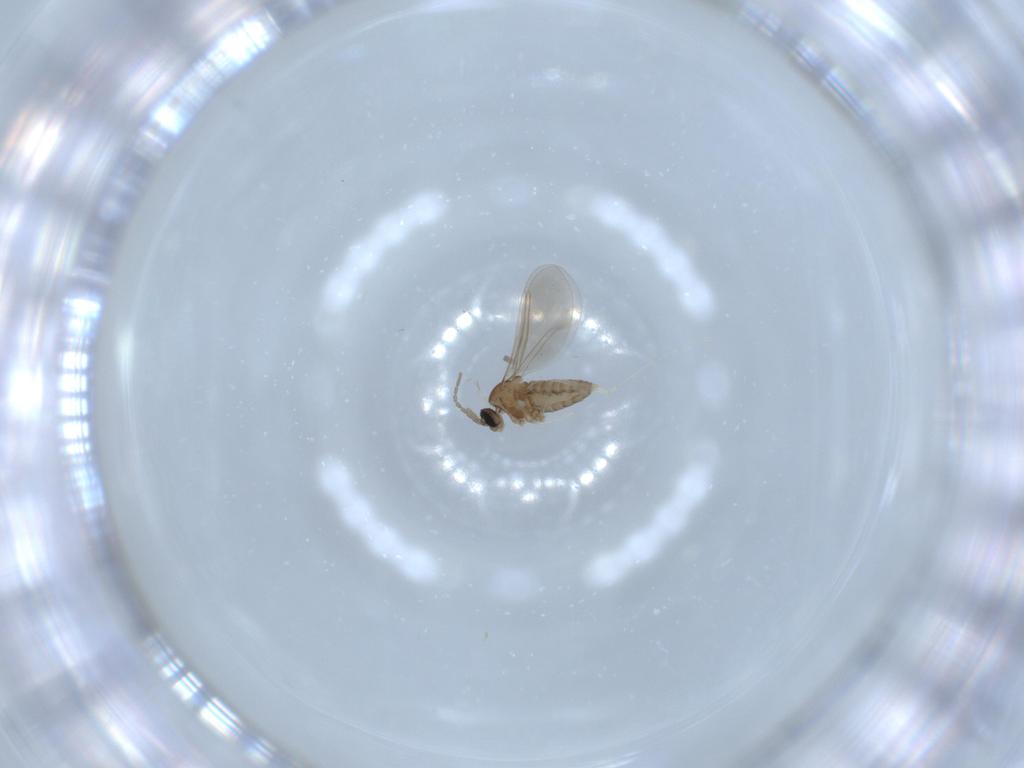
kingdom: Animalia
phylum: Arthropoda
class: Insecta
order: Diptera
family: Cecidomyiidae
